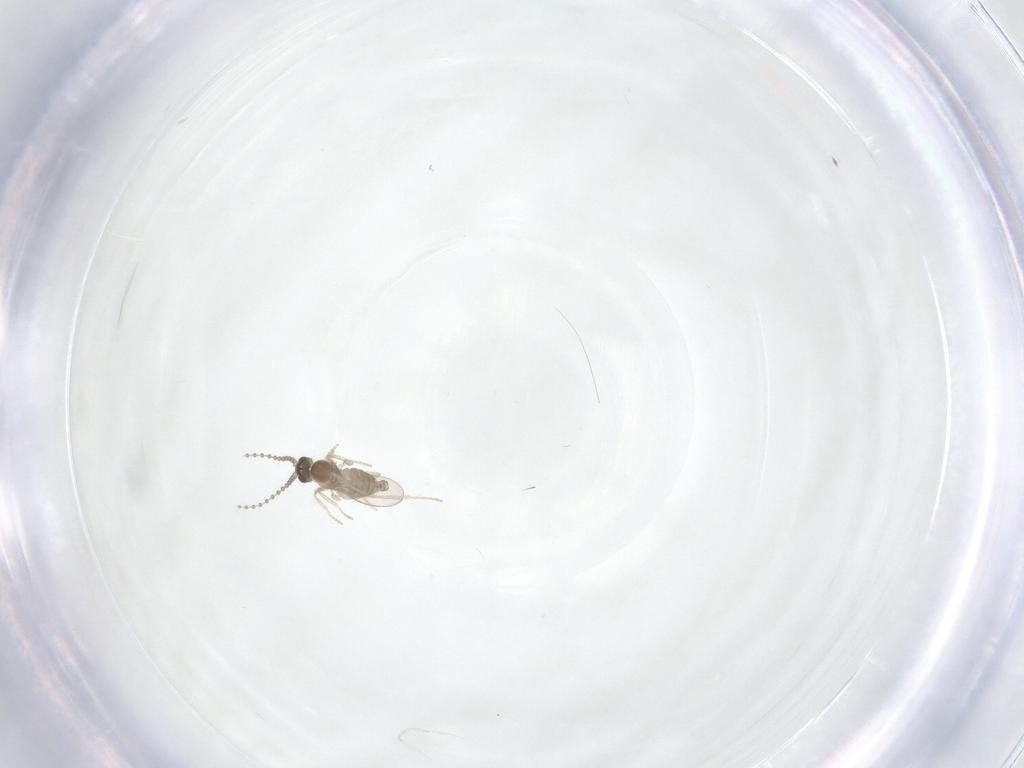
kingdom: Animalia
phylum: Arthropoda
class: Insecta
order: Diptera
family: Cecidomyiidae
